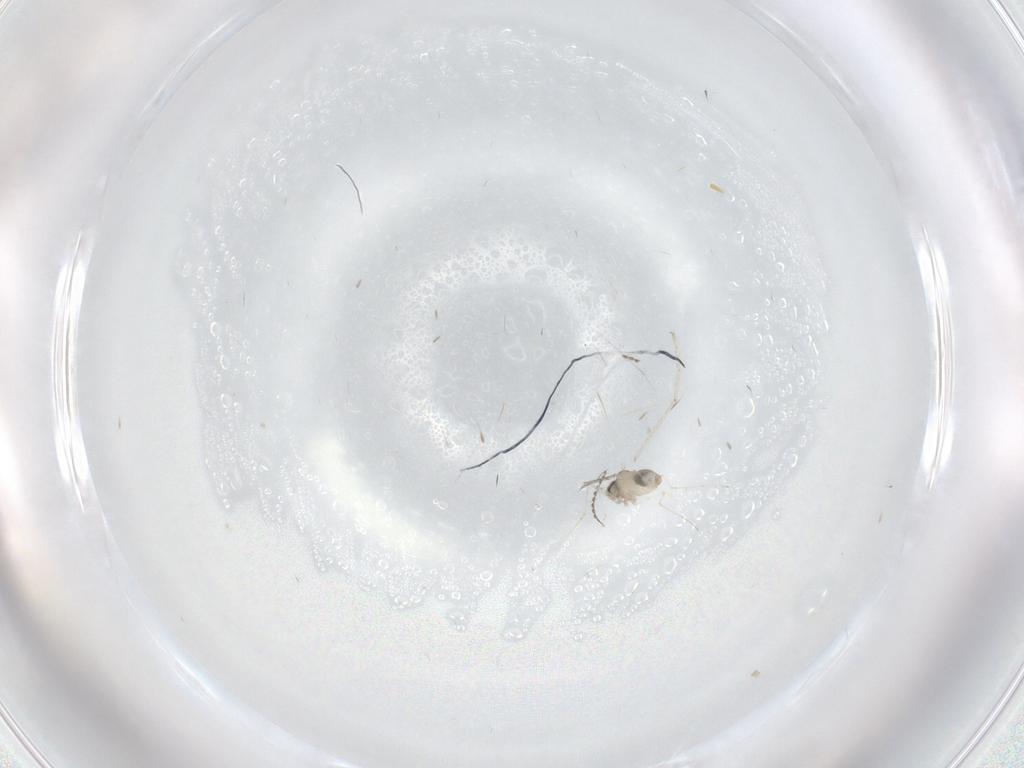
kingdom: Animalia
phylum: Arthropoda
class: Insecta
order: Diptera
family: Cecidomyiidae
